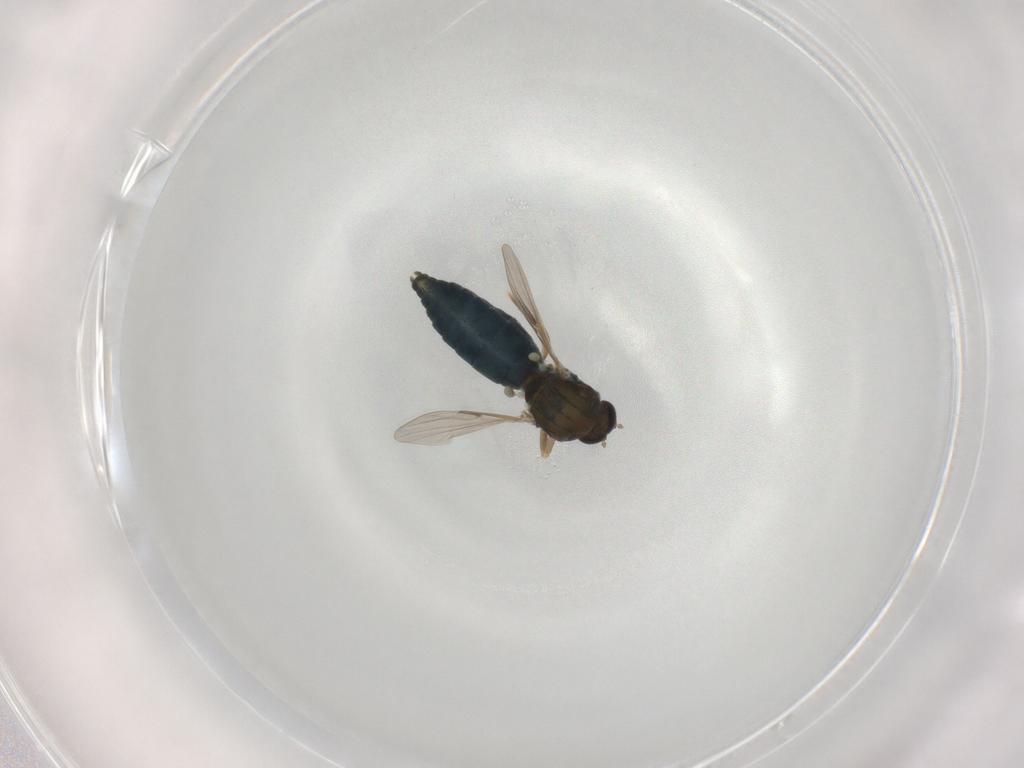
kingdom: Animalia
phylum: Arthropoda
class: Insecta
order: Diptera
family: Ceratopogonidae
